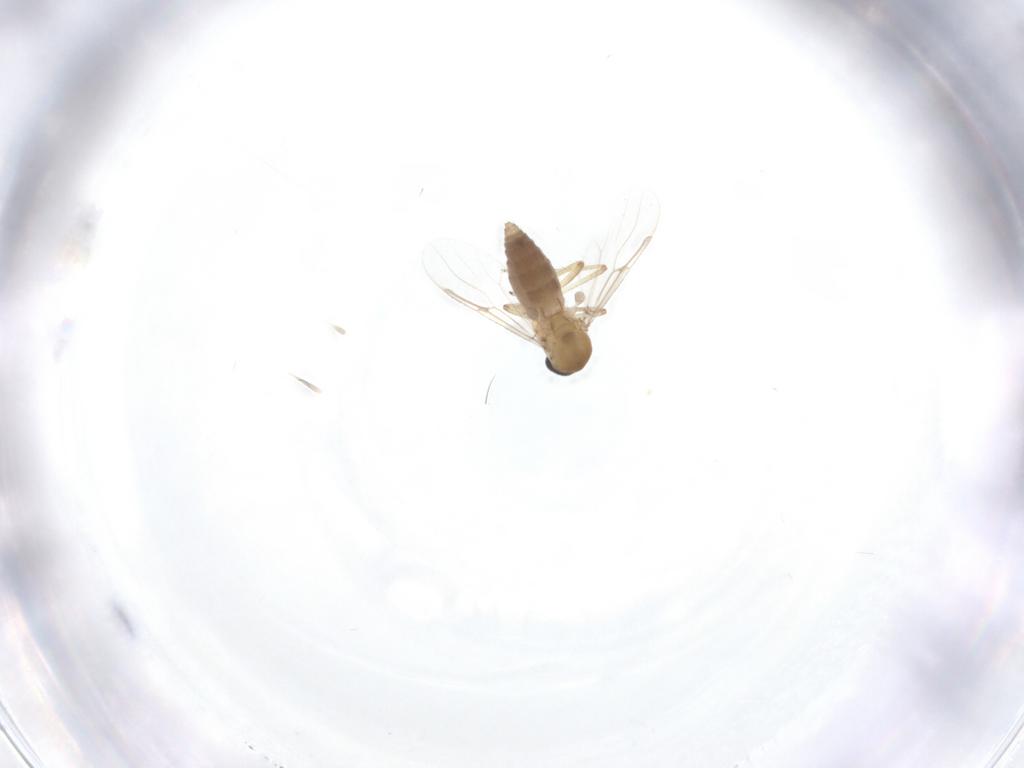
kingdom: Animalia
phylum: Arthropoda
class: Insecta
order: Diptera
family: Ceratopogonidae
